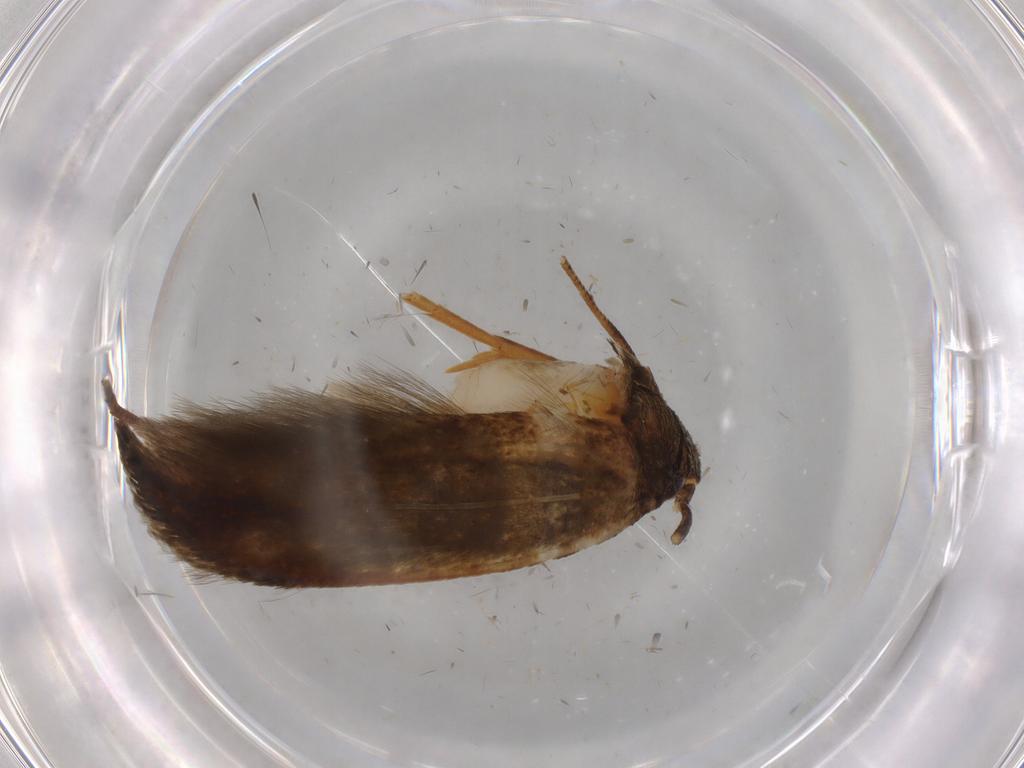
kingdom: Animalia
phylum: Arthropoda
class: Insecta
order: Lepidoptera
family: Tineidae
